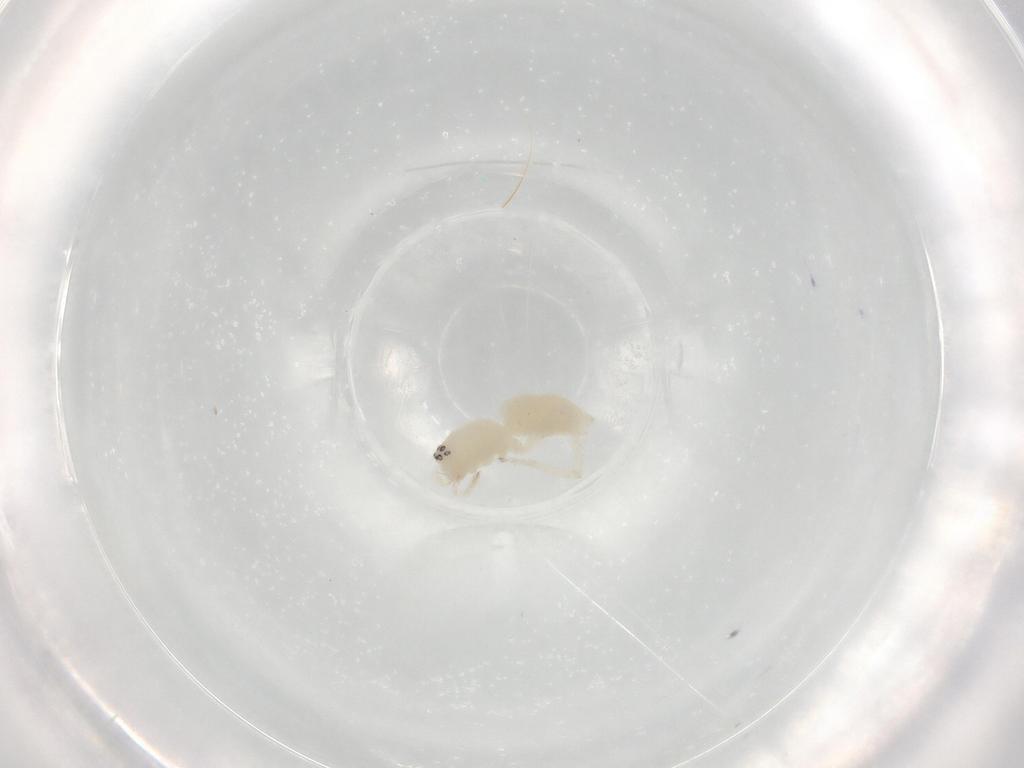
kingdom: Animalia
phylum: Arthropoda
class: Arachnida
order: Araneae
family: Anyphaenidae
